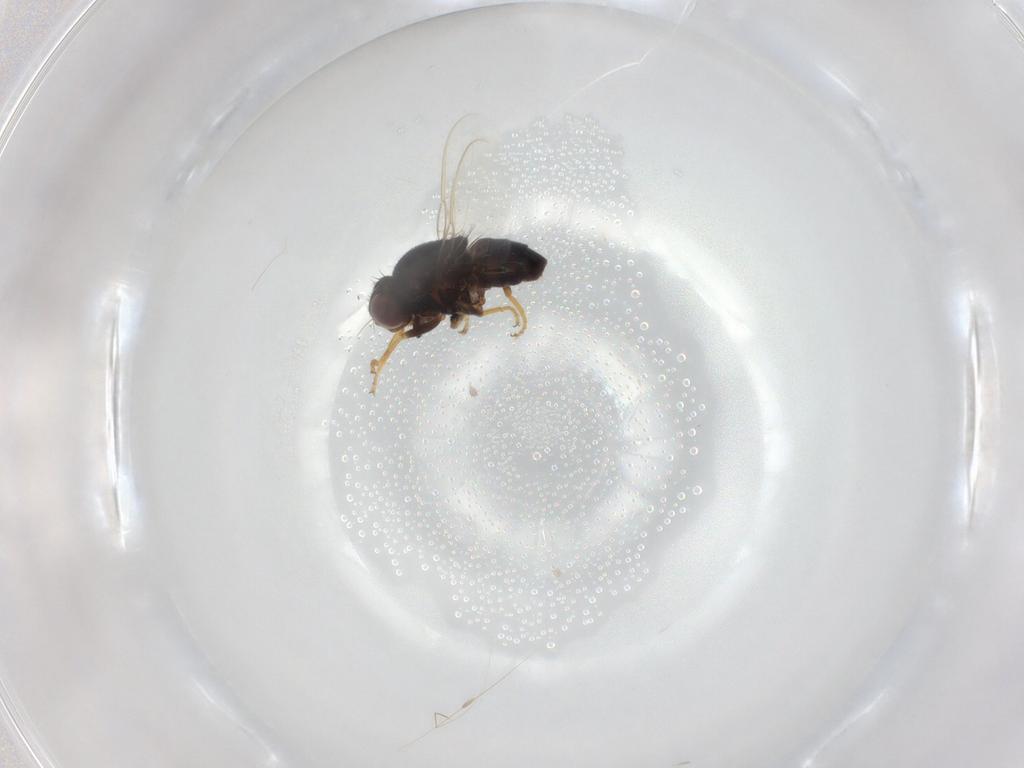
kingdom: Animalia
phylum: Arthropoda
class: Insecta
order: Diptera
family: Chloropidae
